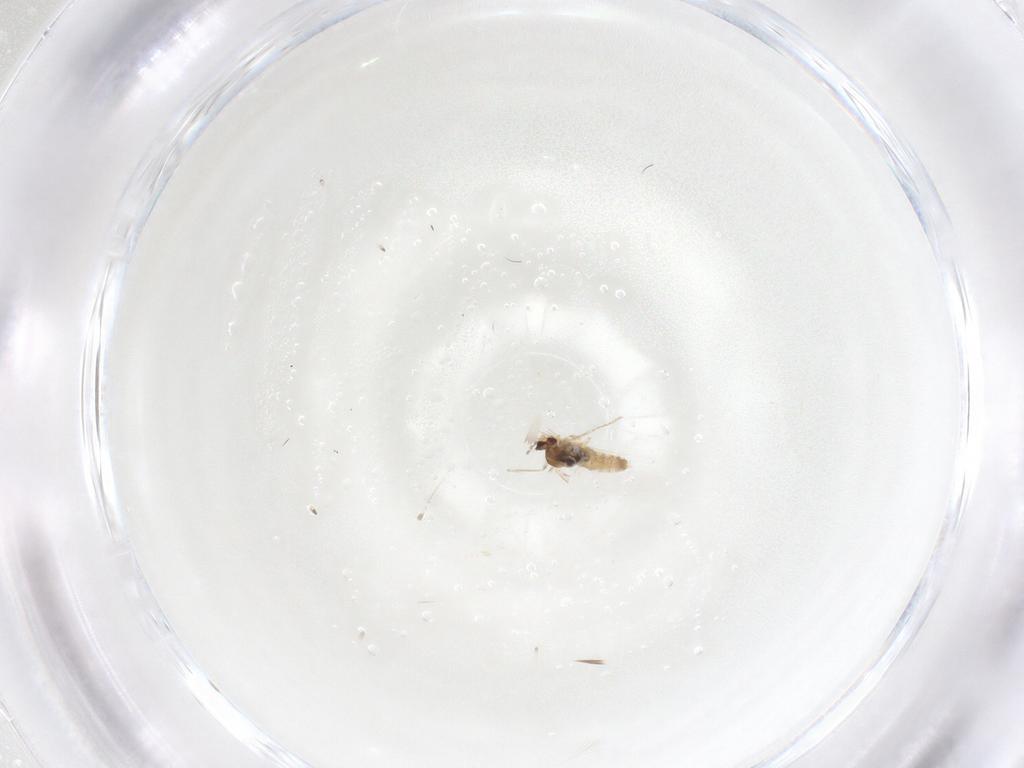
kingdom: Animalia
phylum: Arthropoda
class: Insecta
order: Diptera
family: Cecidomyiidae
